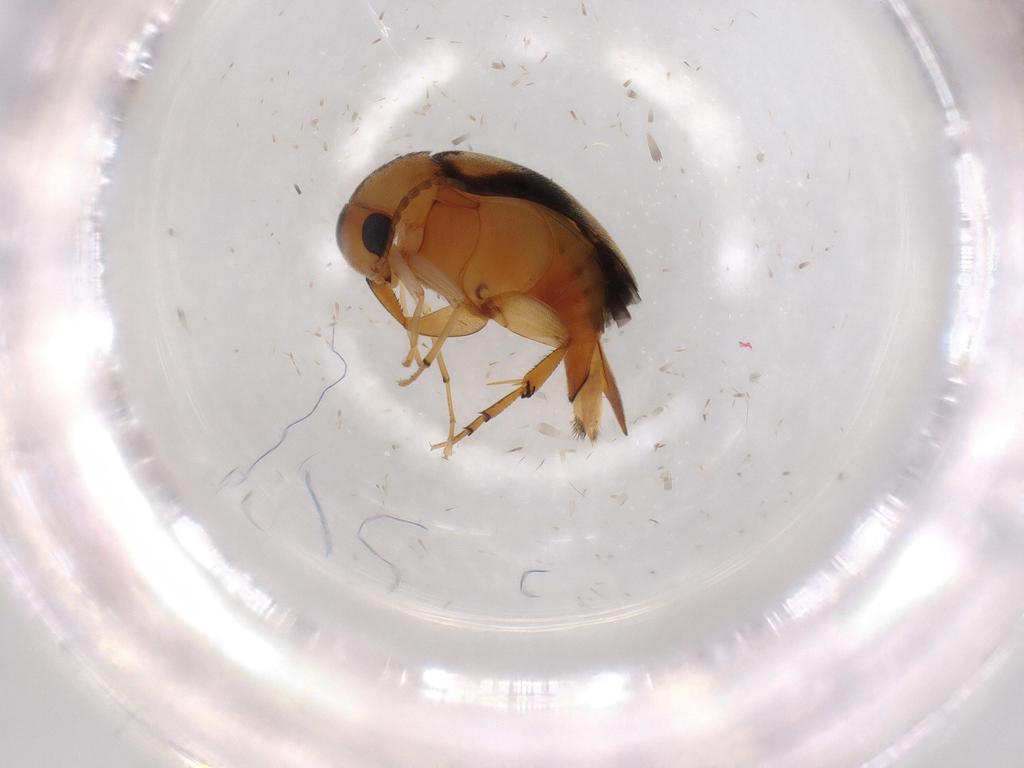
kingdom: Animalia
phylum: Arthropoda
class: Insecta
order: Coleoptera
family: Mordellidae
